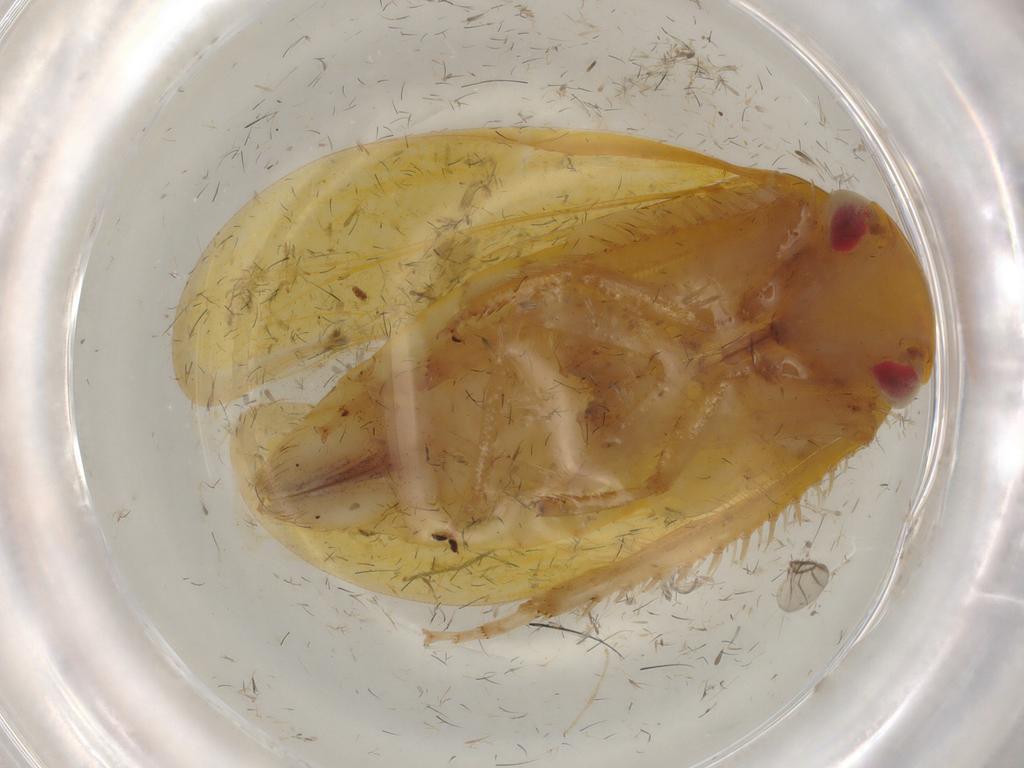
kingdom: Animalia
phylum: Arthropoda
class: Insecta
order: Hemiptera
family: Cicadellidae
